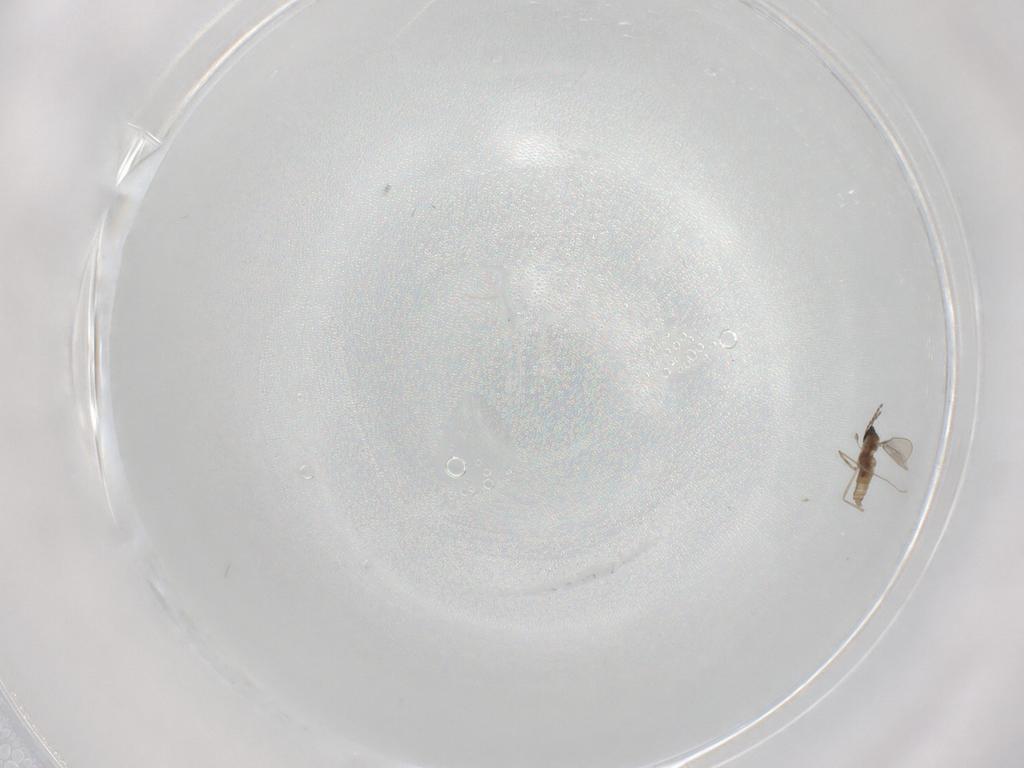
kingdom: Animalia
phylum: Arthropoda
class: Insecta
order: Diptera
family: Cecidomyiidae
